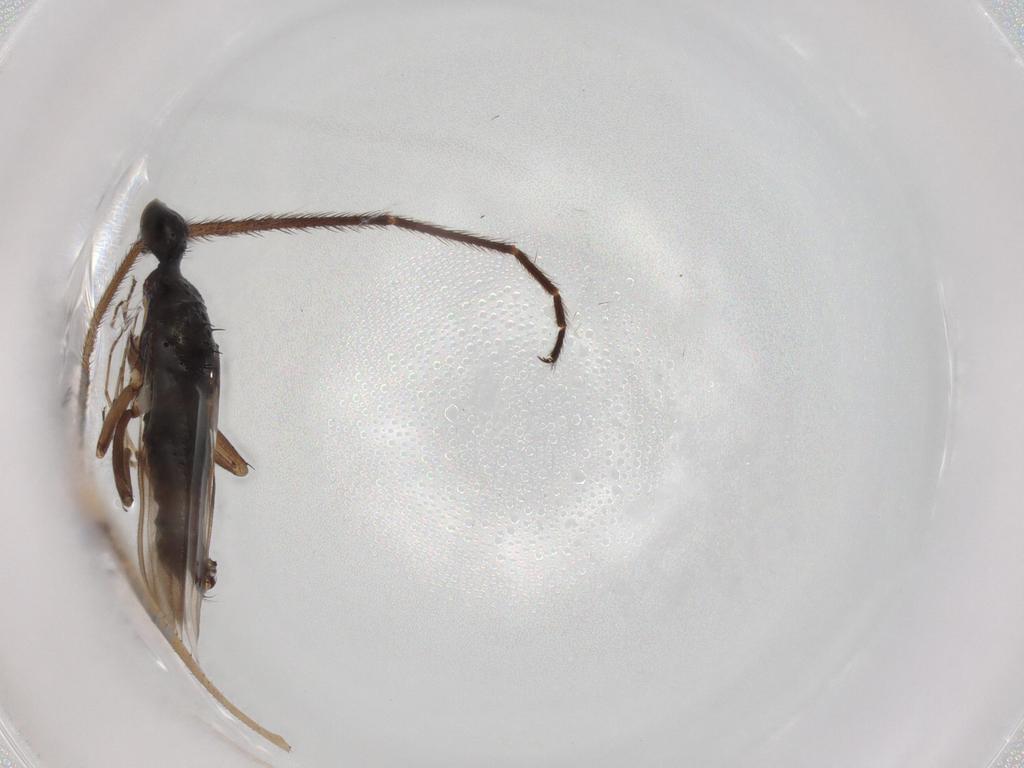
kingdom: Animalia
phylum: Arthropoda
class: Insecta
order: Diptera
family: Hybotidae
